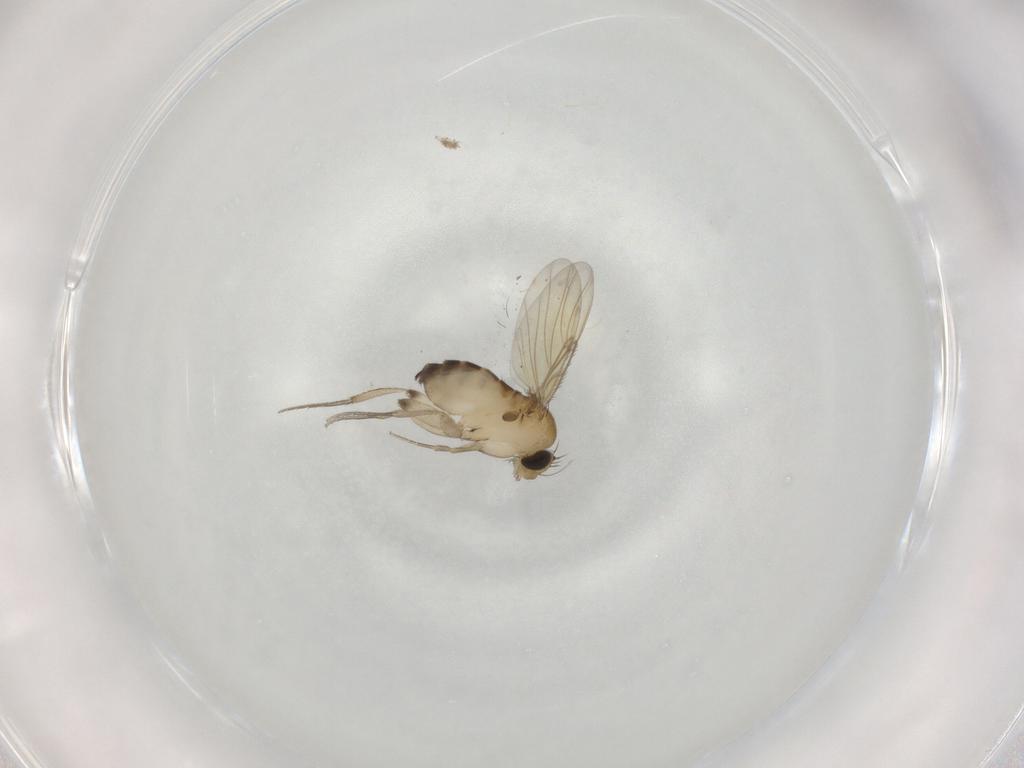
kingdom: Animalia
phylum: Arthropoda
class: Insecta
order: Diptera
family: Phoridae
